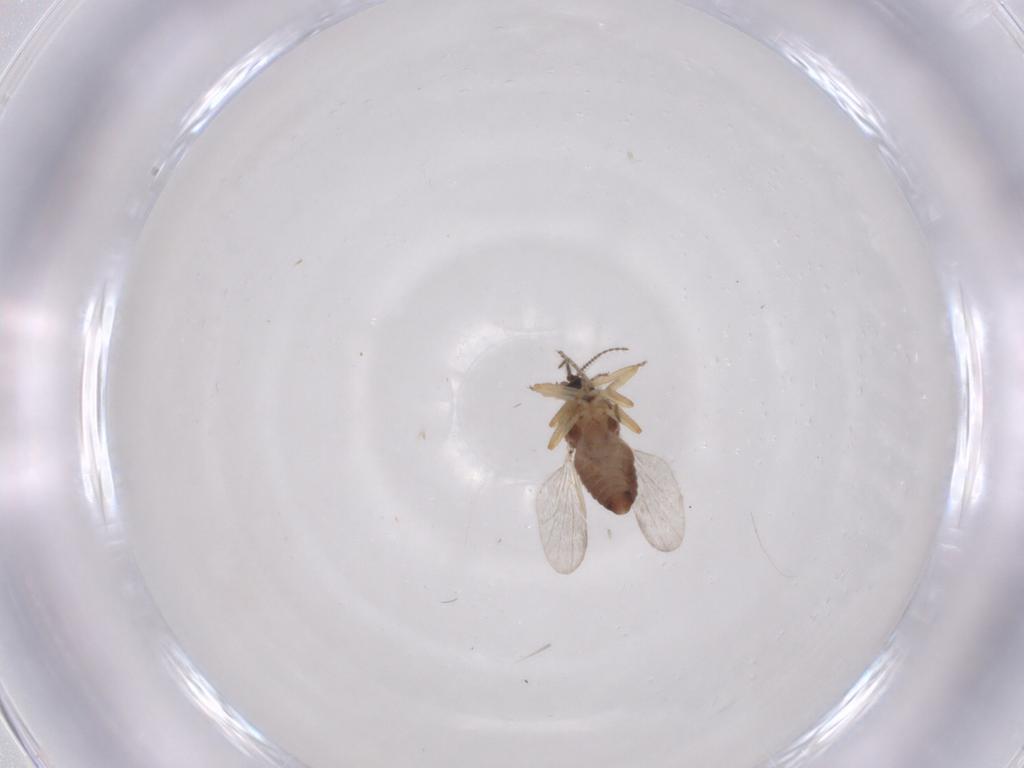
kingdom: Animalia
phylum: Arthropoda
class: Insecta
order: Diptera
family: Ceratopogonidae
